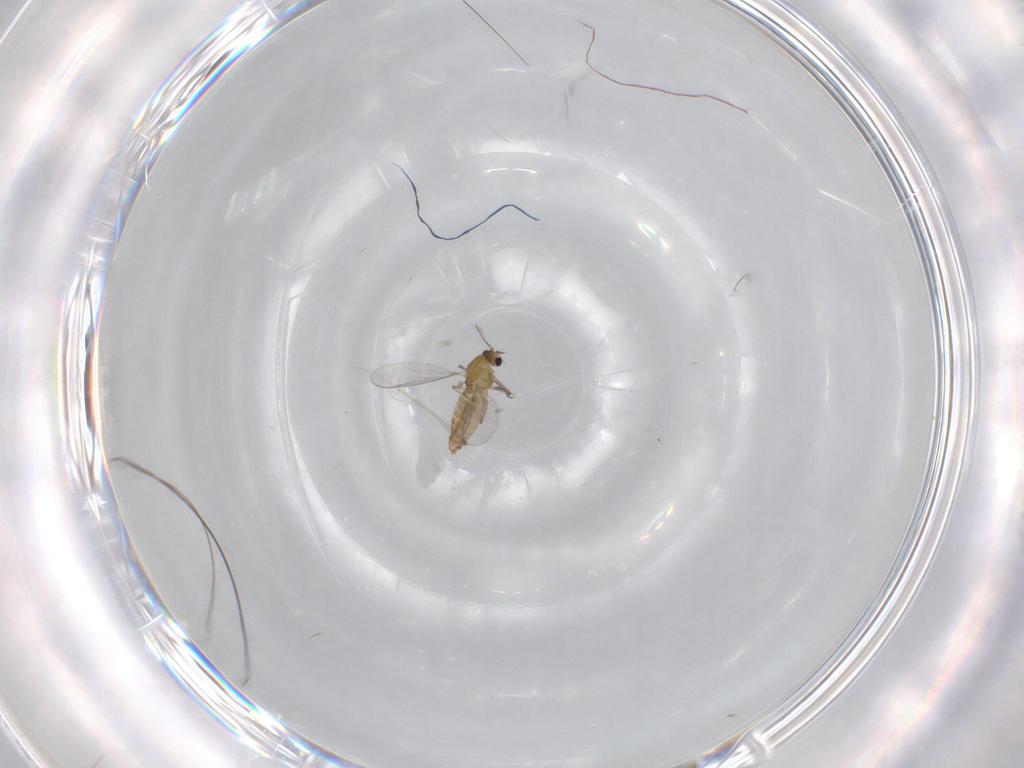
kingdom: Animalia
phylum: Arthropoda
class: Insecta
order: Diptera
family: Chironomidae
